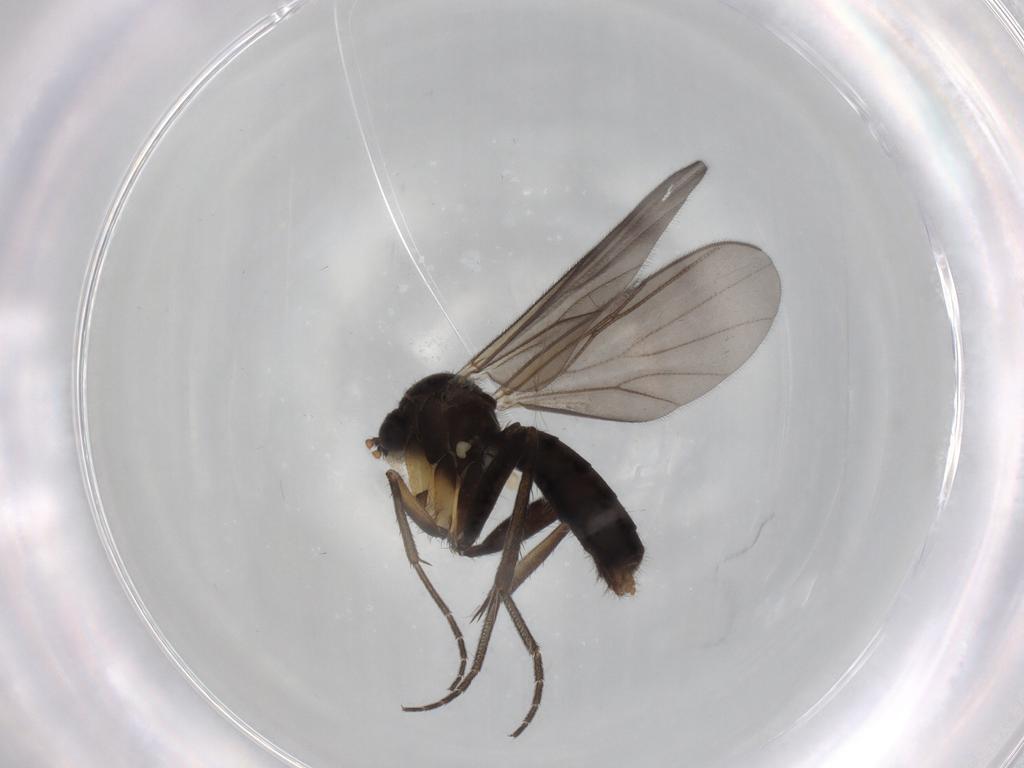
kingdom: Animalia
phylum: Arthropoda
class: Insecta
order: Diptera
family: Mycetophilidae
